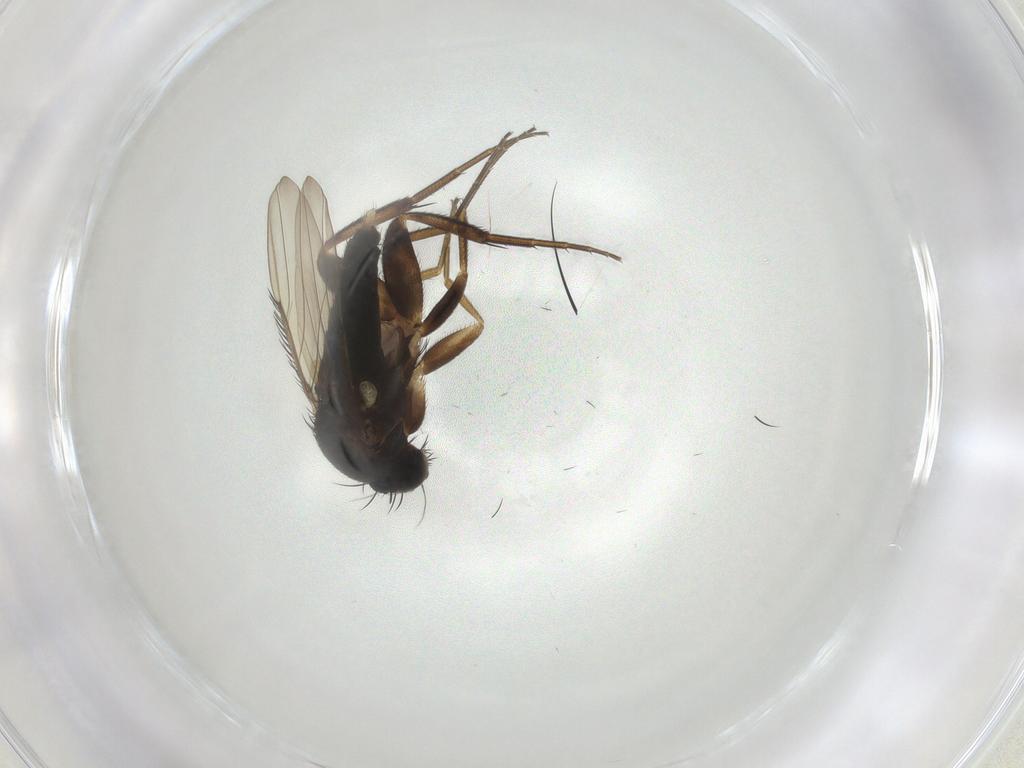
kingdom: Animalia
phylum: Arthropoda
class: Insecta
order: Diptera
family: Phoridae
